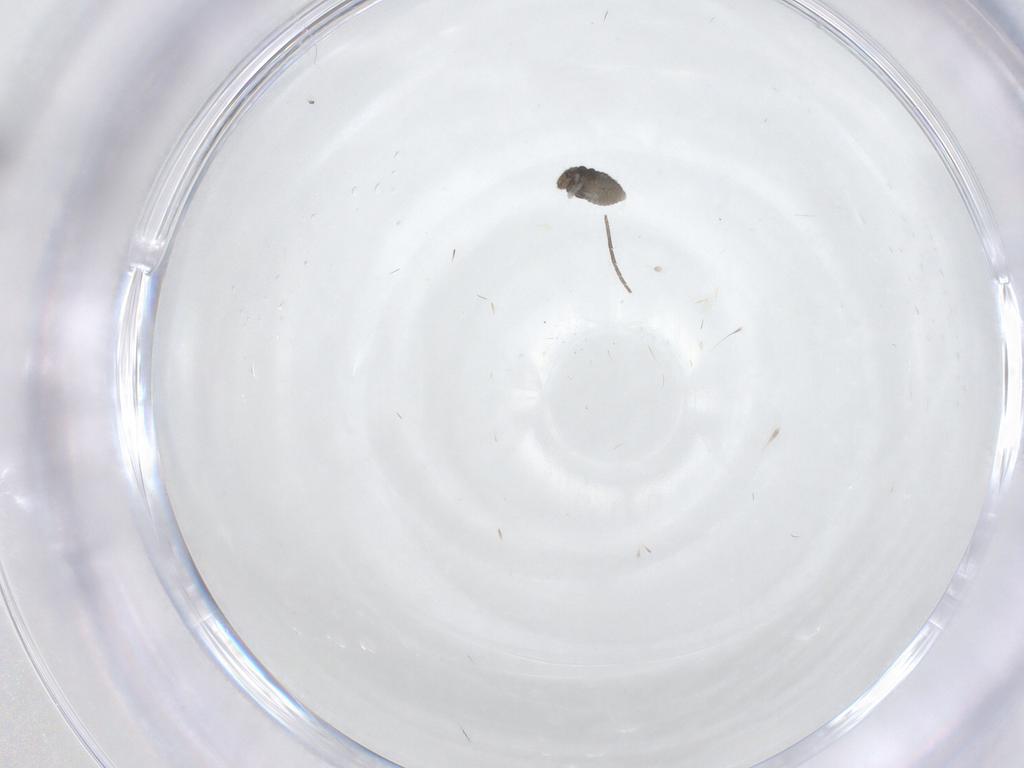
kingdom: Animalia
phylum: Arthropoda
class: Insecta
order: Coleoptera
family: Coccinellidae
